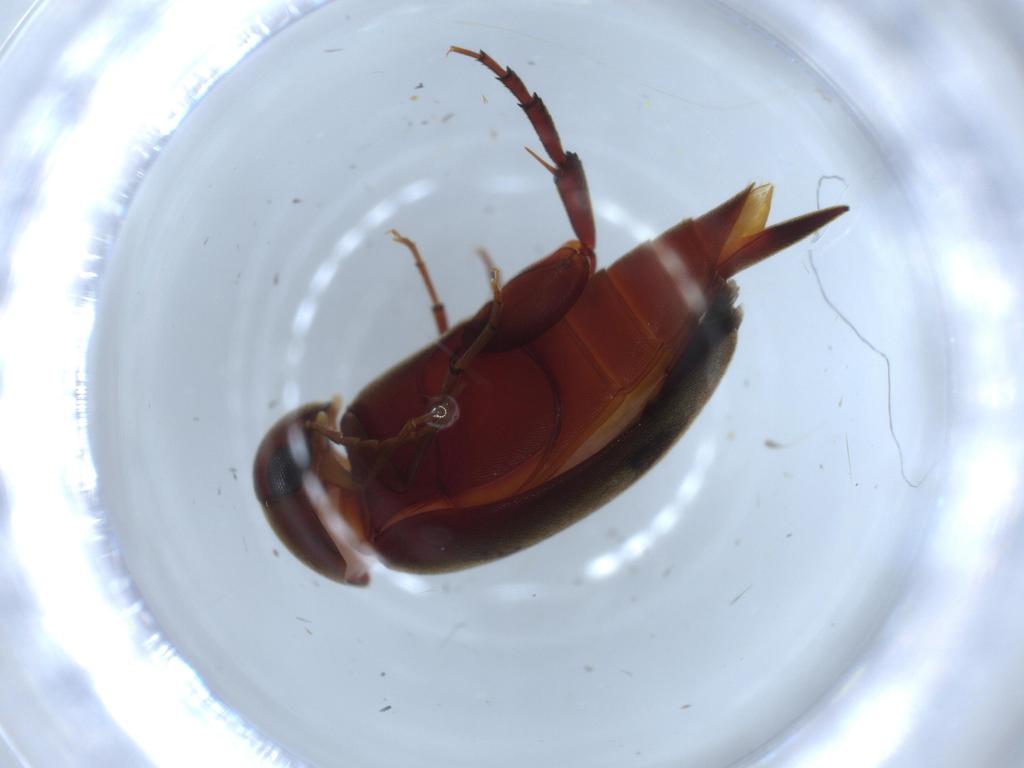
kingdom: Animalia
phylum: Arthropoda
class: Insecta
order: Coleoptera
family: Scarabaeidae
